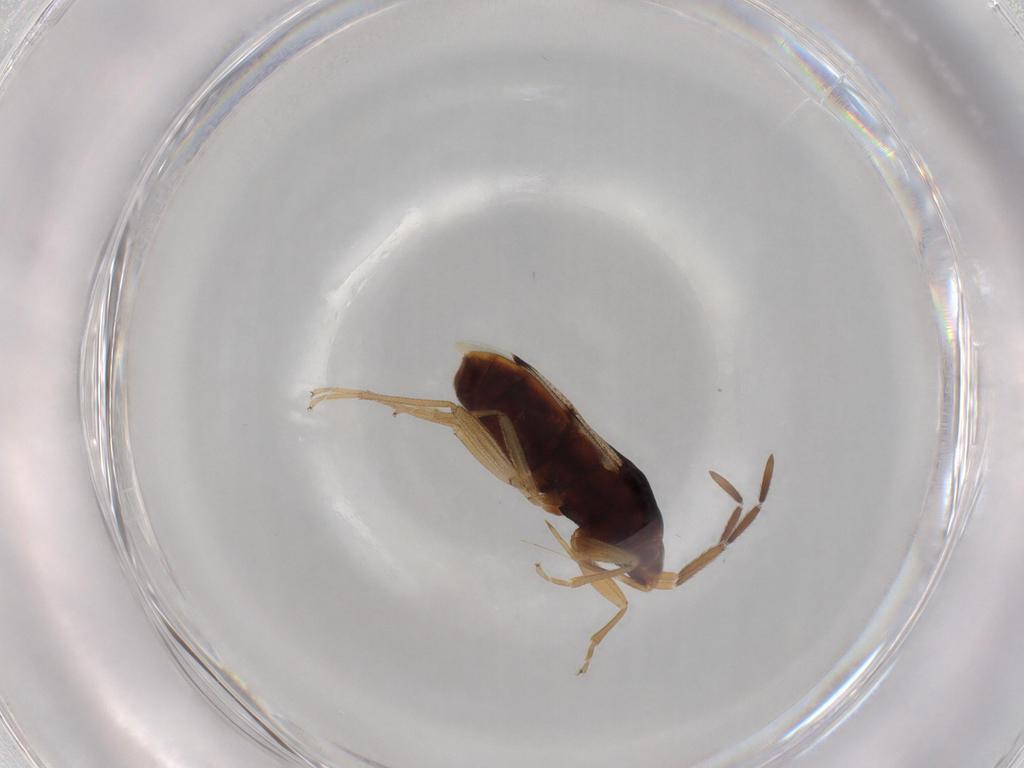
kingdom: Animalia
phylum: Arthropoda
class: Insecta
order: Hemiptera
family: Rhyparochromidae
